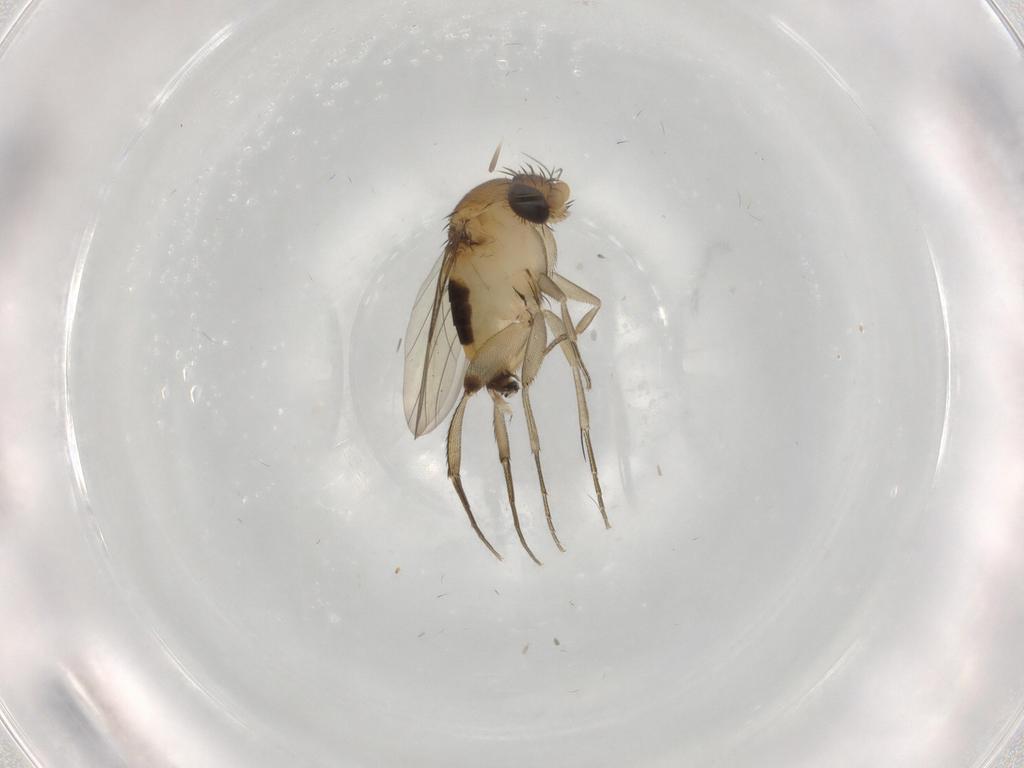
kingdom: Animalia
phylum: Arthropoda
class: Insecta
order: Diptera
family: Phoridae
